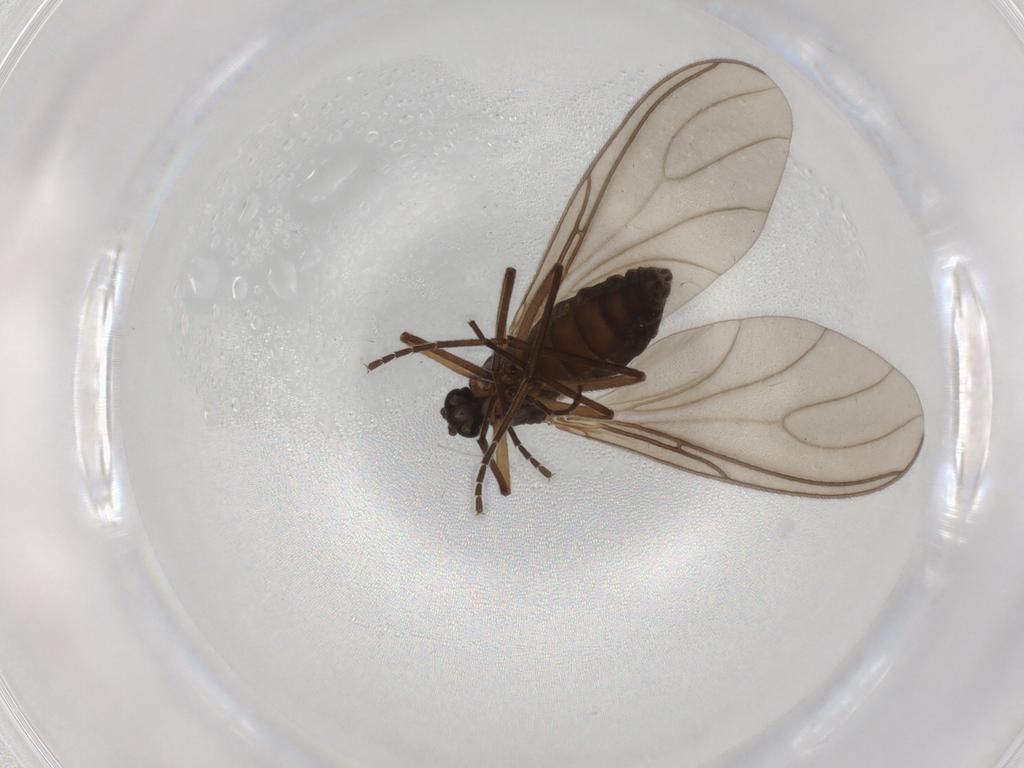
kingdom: Animalia
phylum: Arthropoda
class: Insecta
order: Diptera
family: Sciaridae
